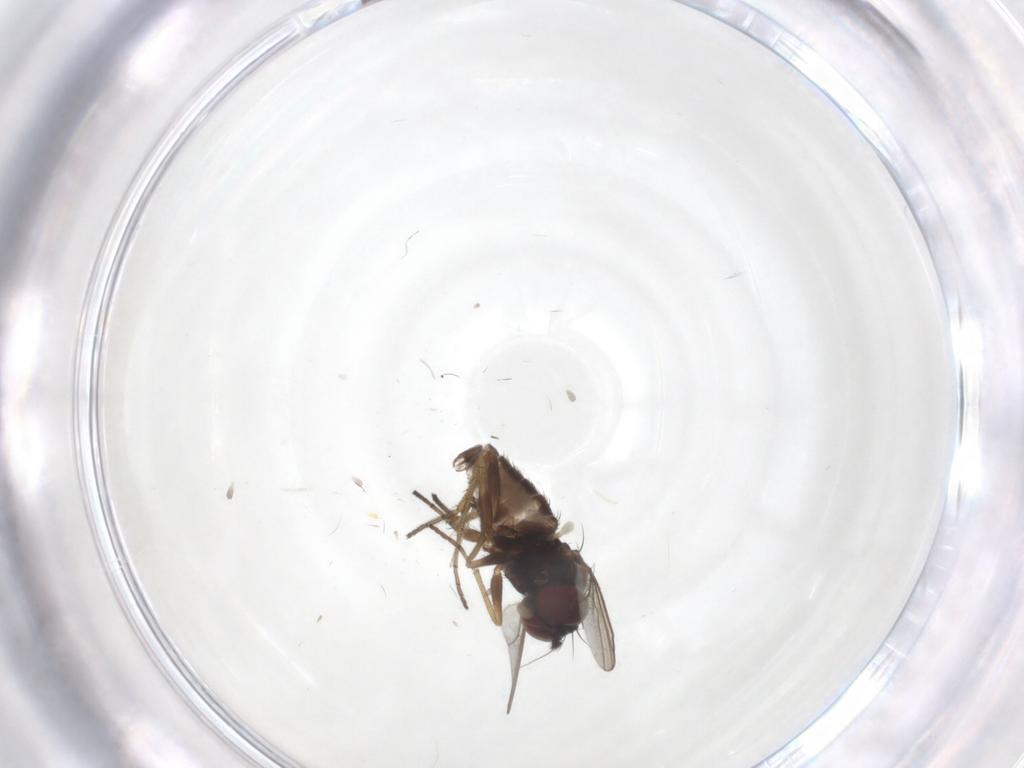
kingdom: Animalia
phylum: Arthropoda
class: Insecta
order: Diptera
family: Dolichopodidae
